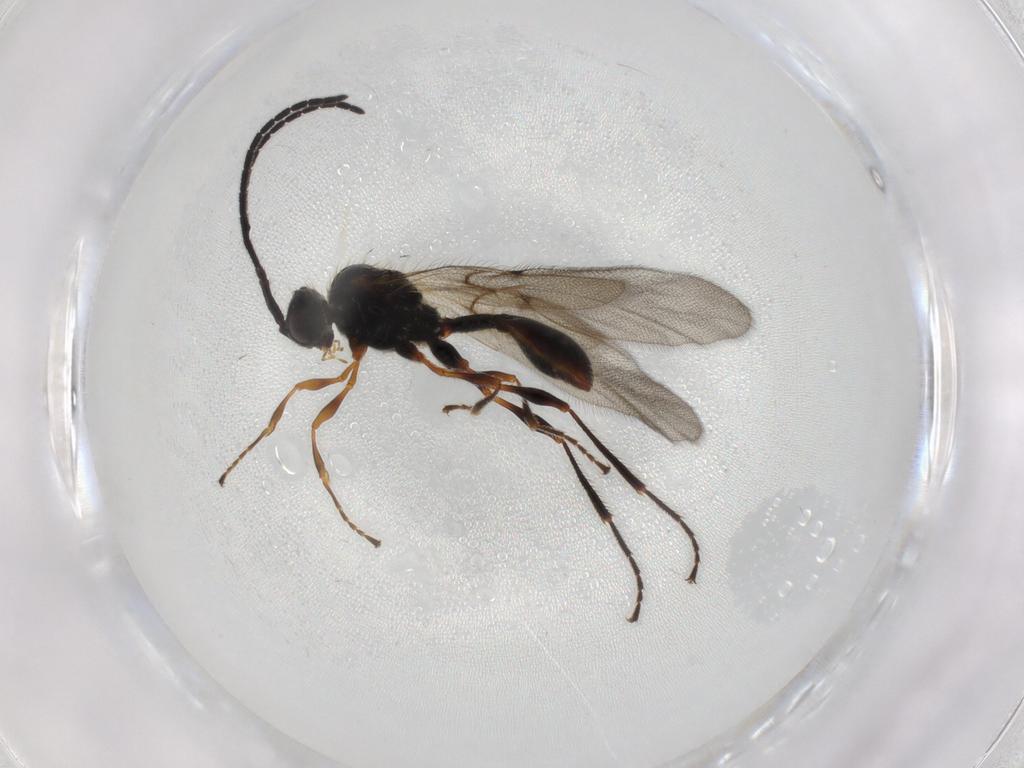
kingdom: Animalia
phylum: Arthropoda
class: Insecta
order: Hymenoptera
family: Diapriidae
